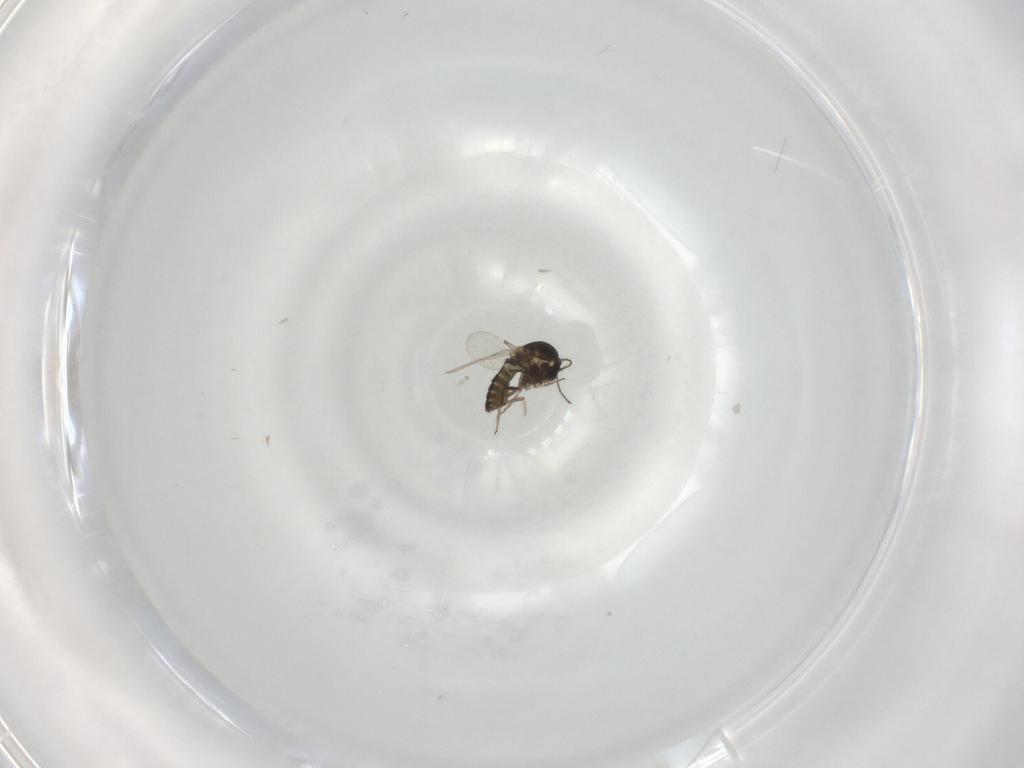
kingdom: Animalia
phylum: Arthropoda
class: Insecta
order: Diptera
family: Ceratopogonidae
